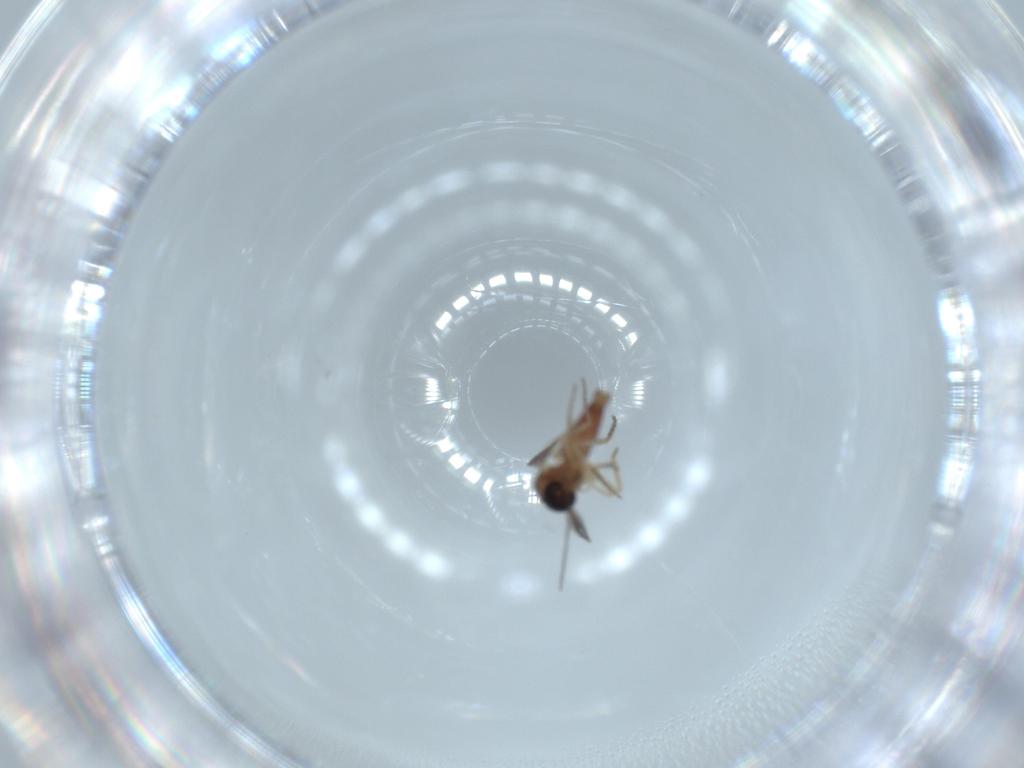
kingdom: Animalia
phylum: Arthropoda
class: Insecta
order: Diptera
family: Ceratopogonidae
